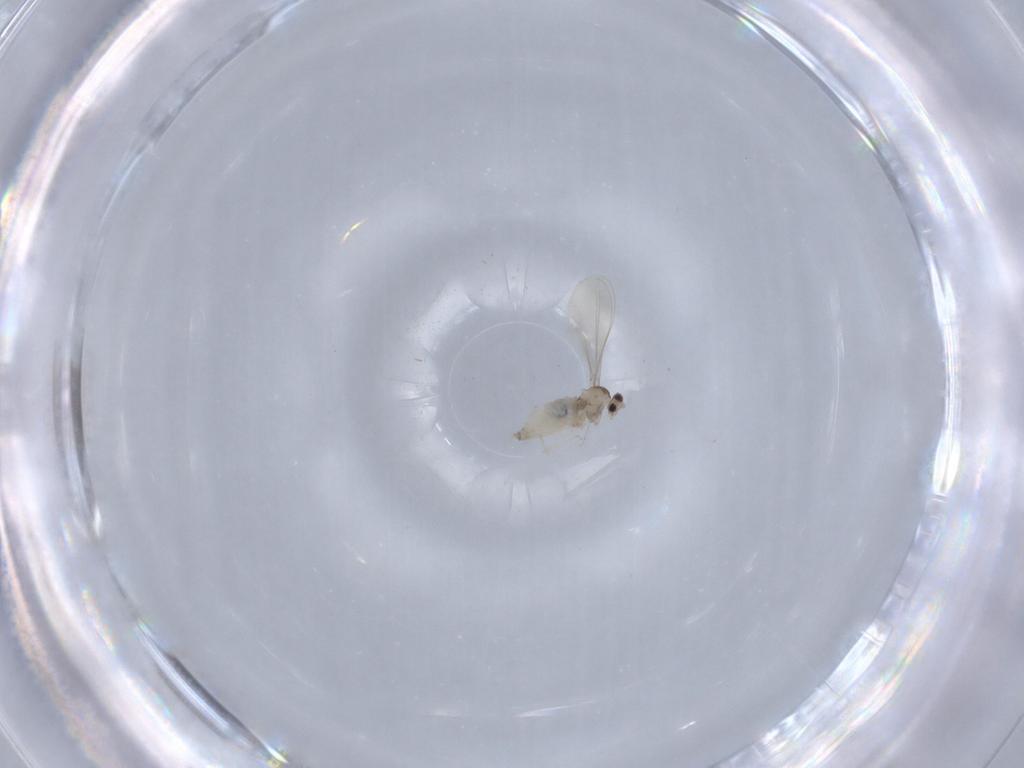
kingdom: Animalia
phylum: Arthropoda
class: Insecta
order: Diptera
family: Cecidomyiidae
